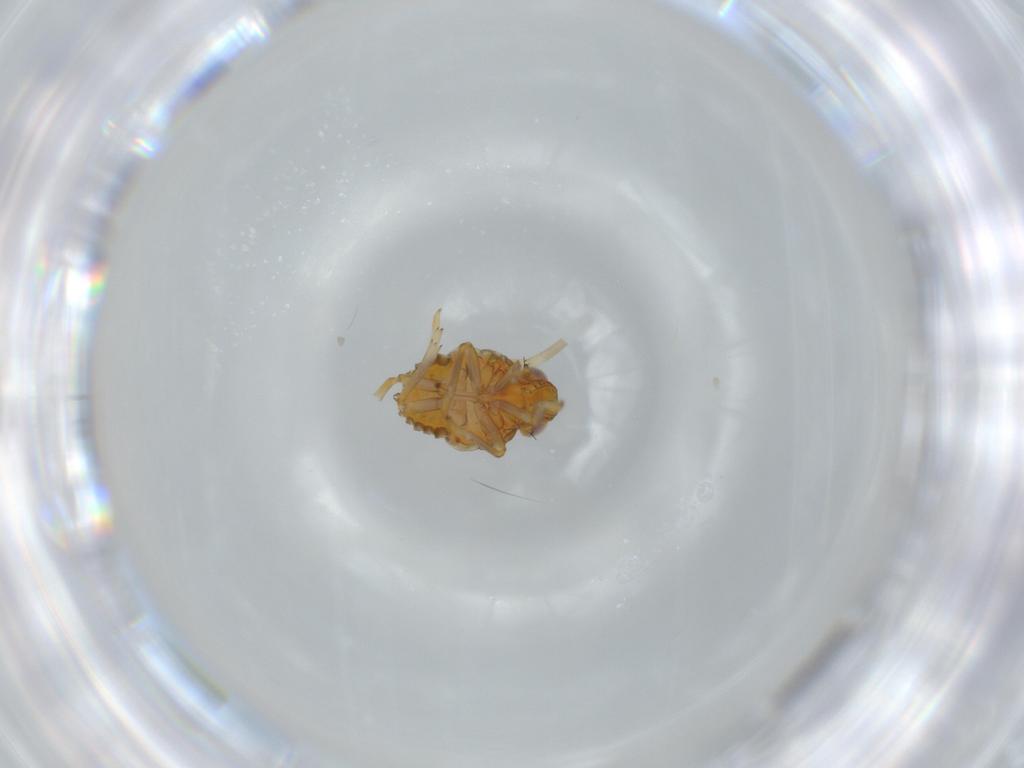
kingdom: Animalia
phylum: Arthropoda
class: Insecta
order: Hemiptera
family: Issidae
